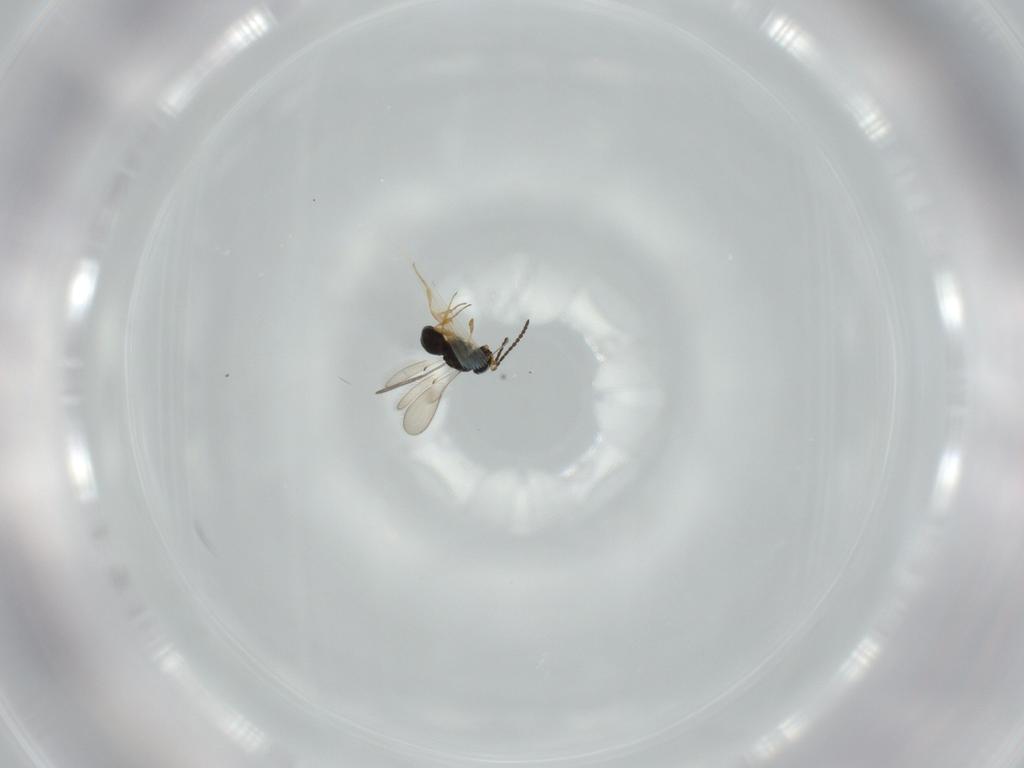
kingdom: Animalia
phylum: Arthropoda
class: Insecta
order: Hymenoptera
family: Scelionidae
